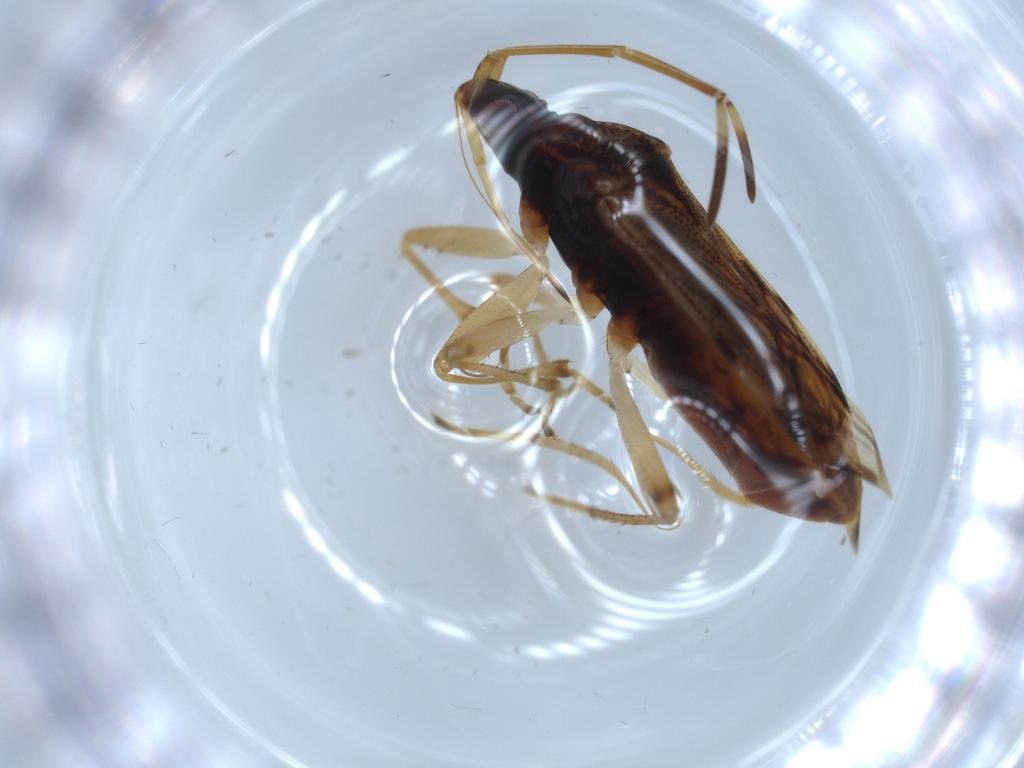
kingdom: Animalia
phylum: Arthropoda
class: Insecta
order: Hemiptera
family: Rhyparochromidae
